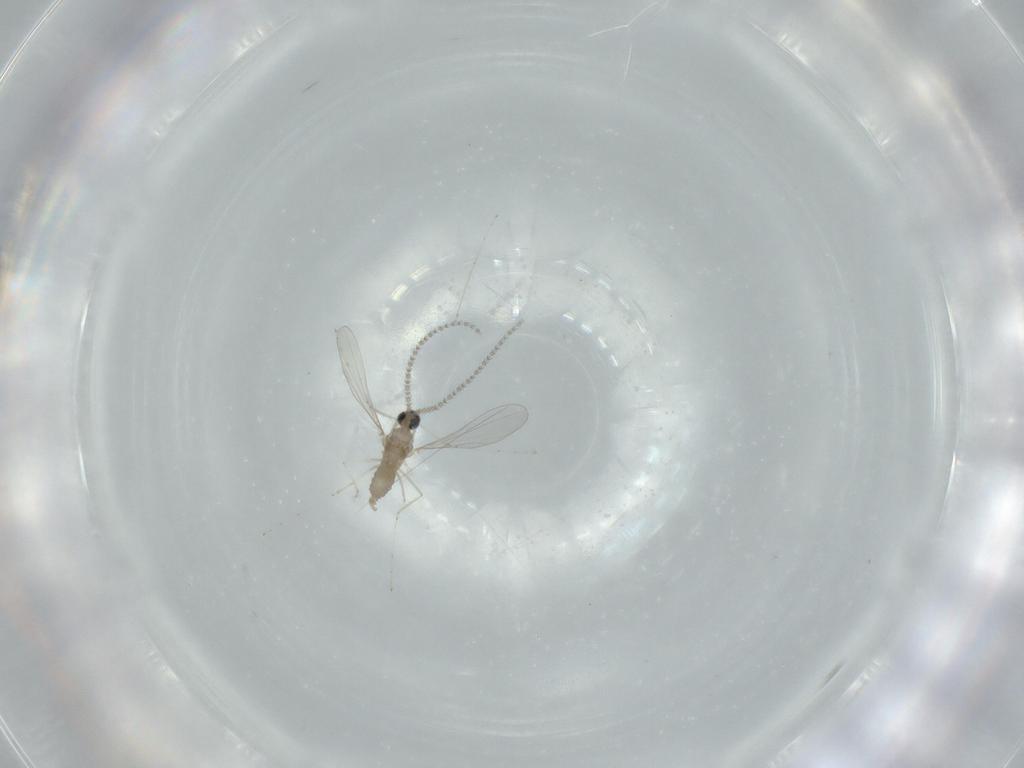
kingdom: Animalia
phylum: Arthropoda
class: Insecta
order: Diptera
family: Cecidomyiidae
